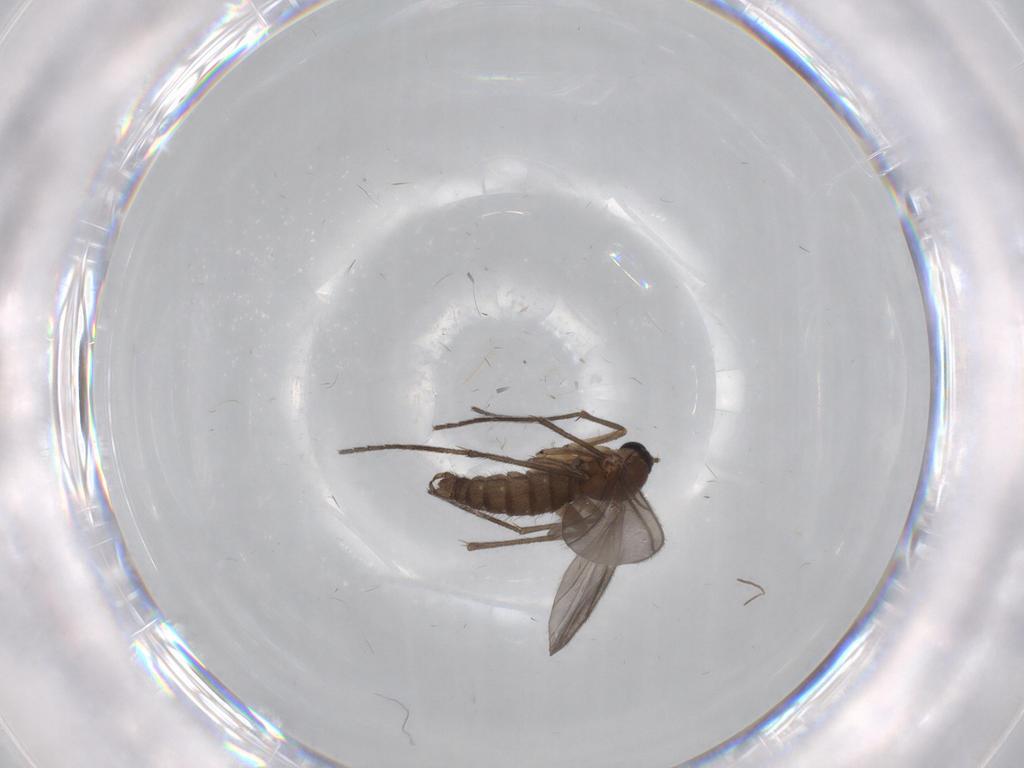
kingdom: Animalia
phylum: Arthropoda
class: Insecta
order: Diptera
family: Sciaridae
